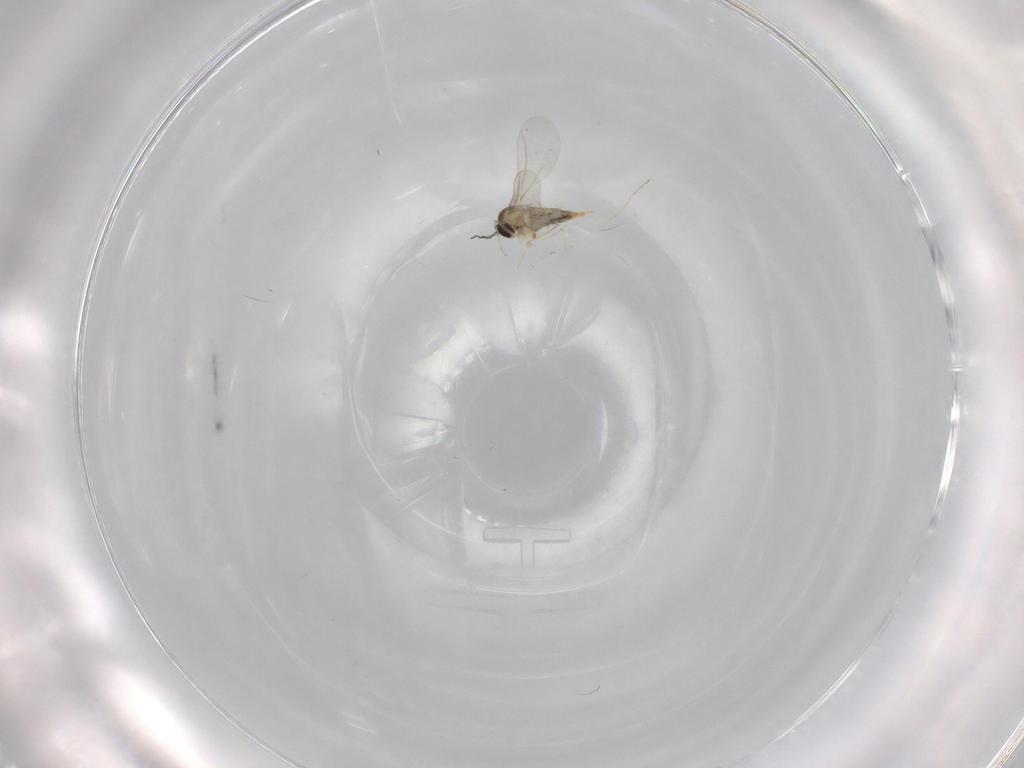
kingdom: Animalia
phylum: Arthropoda
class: Insecta
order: Diptera
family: Cecidomyiidae
